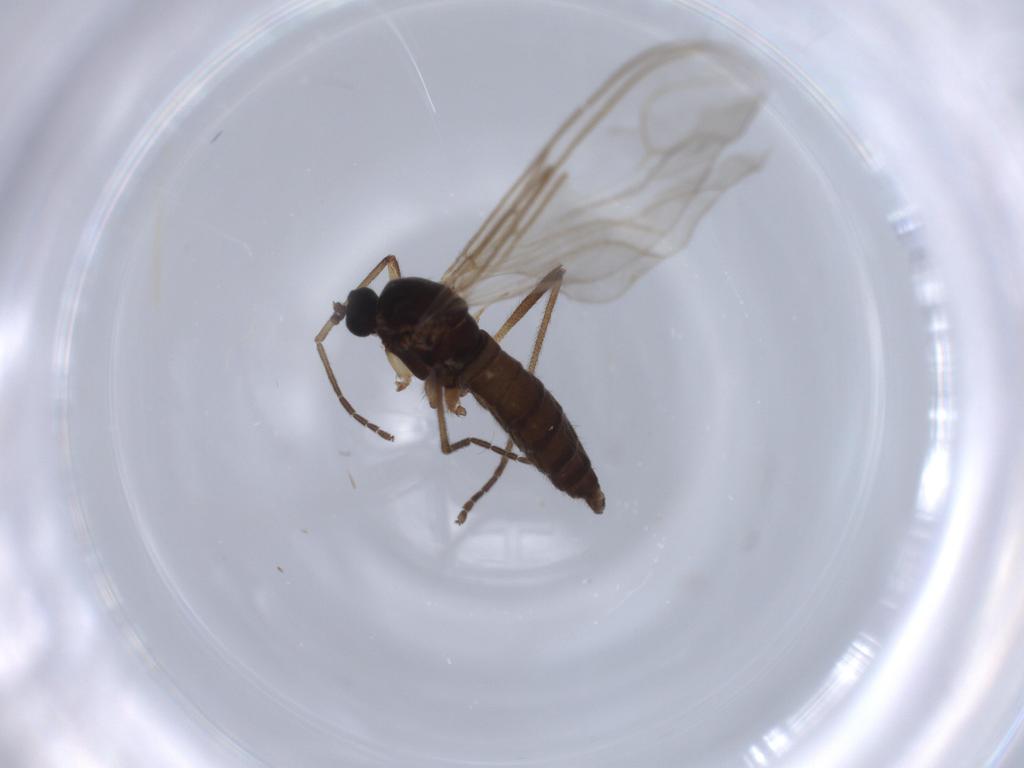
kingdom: Animalia
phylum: Arthropoda
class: Insecta
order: Diptera
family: Sciaridae
